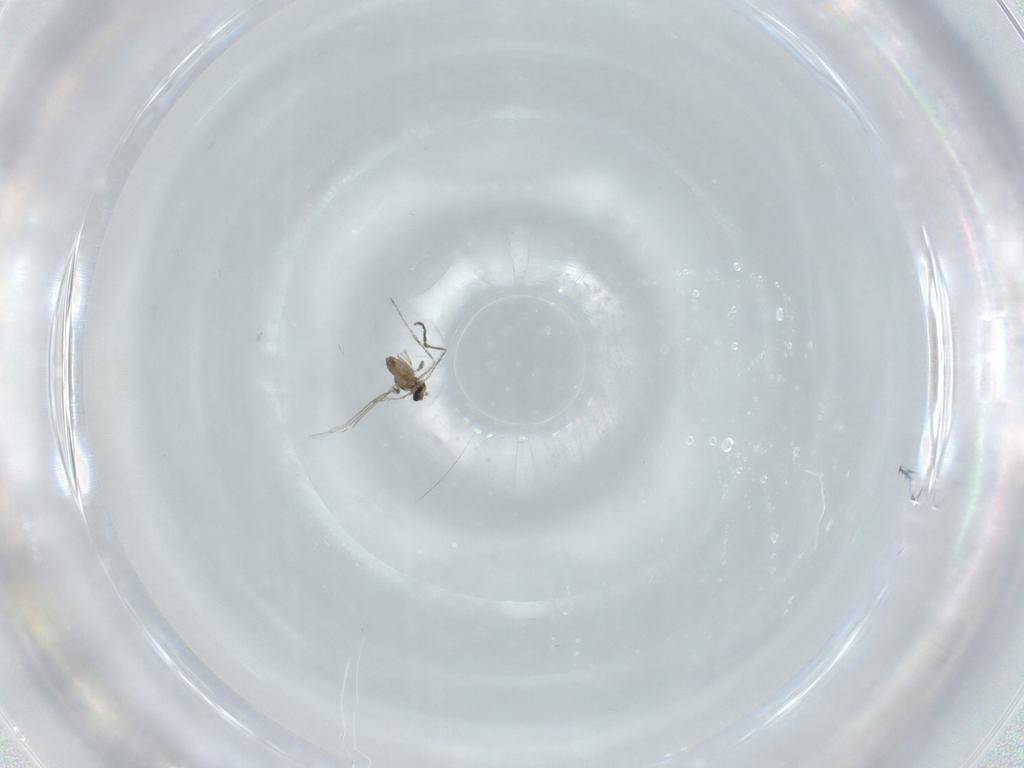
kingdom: Animalia
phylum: Arthropoda
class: Insecta
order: Diptera
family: Cecidomyiidae
